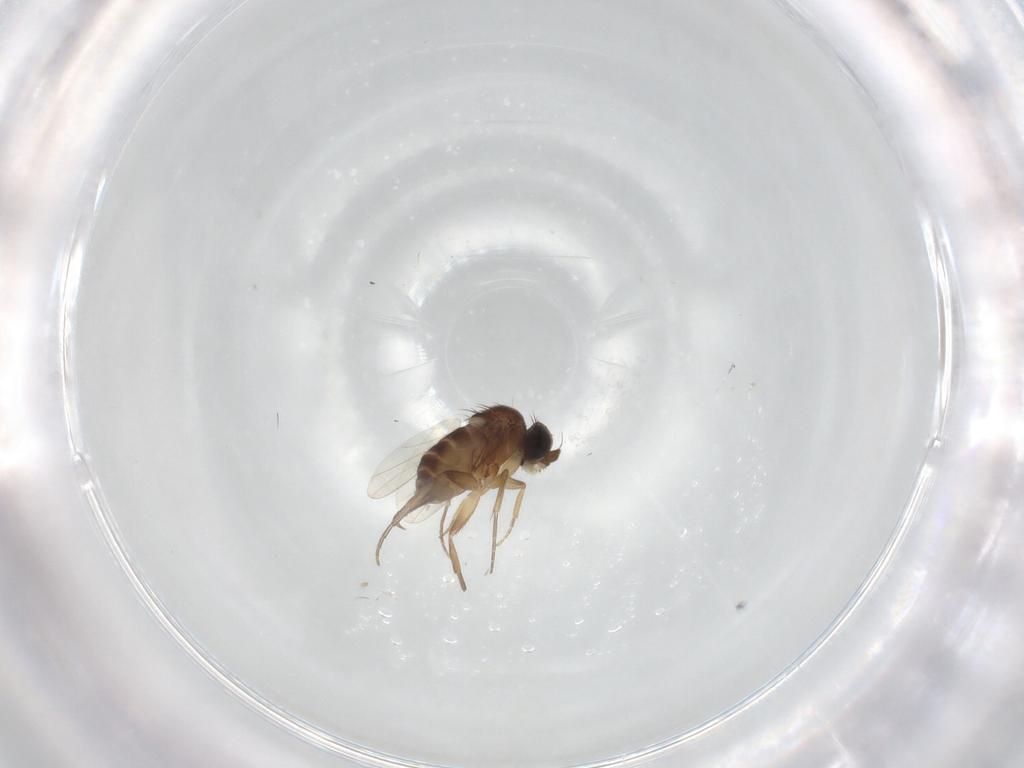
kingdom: Animalia
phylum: Arthropoda
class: Insecta
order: Diptera
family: Phoridae
